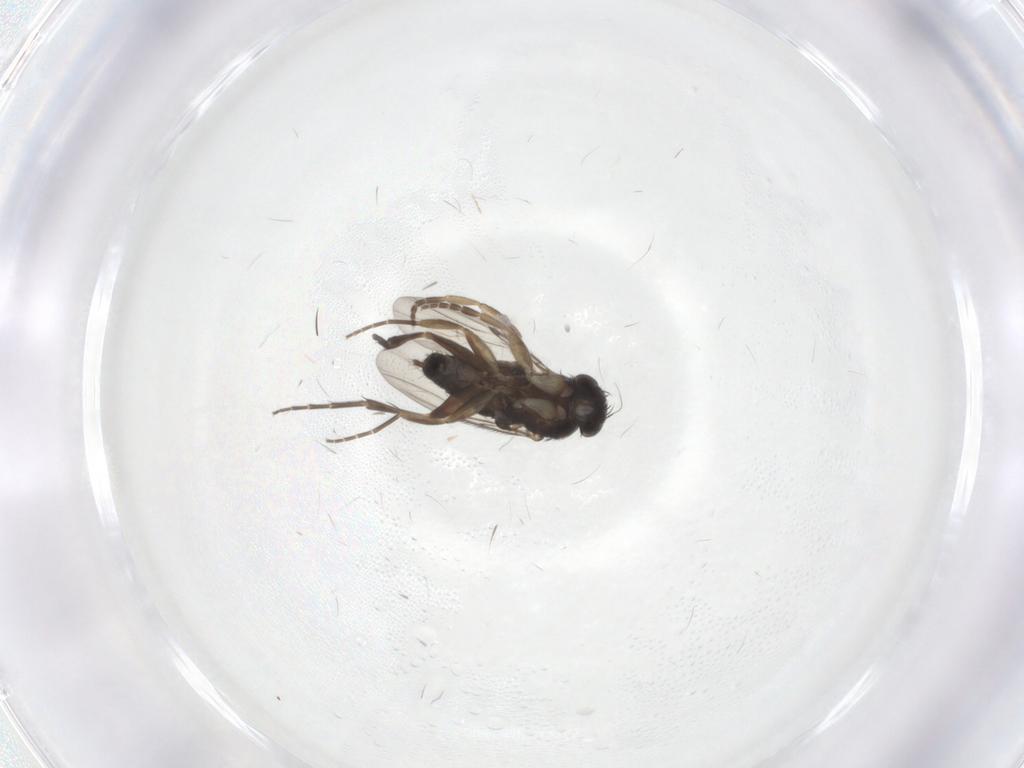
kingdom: Animalia
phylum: Arthropoda
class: Insecta
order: Diptera
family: Phoridae
